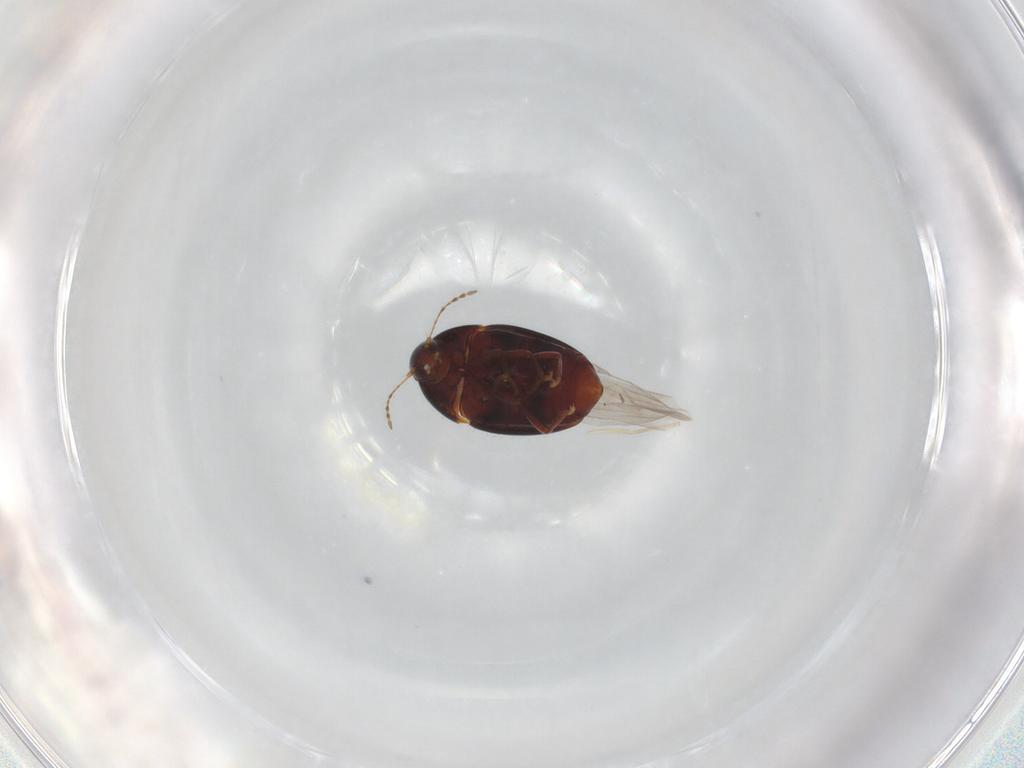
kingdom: Animalia
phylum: Arthropoda
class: Insecta
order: Coleoptera
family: Staphylinidae
